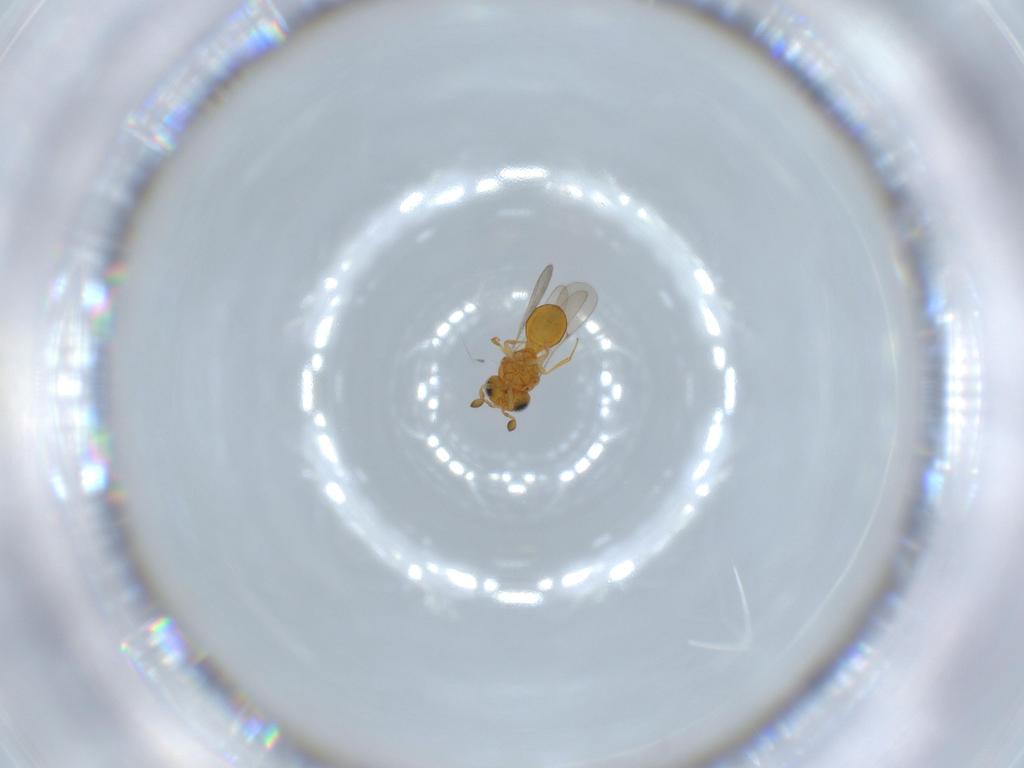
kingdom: Animalia
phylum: Arthropoda
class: Insecta
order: Hymenoptera
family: Scelionidae
